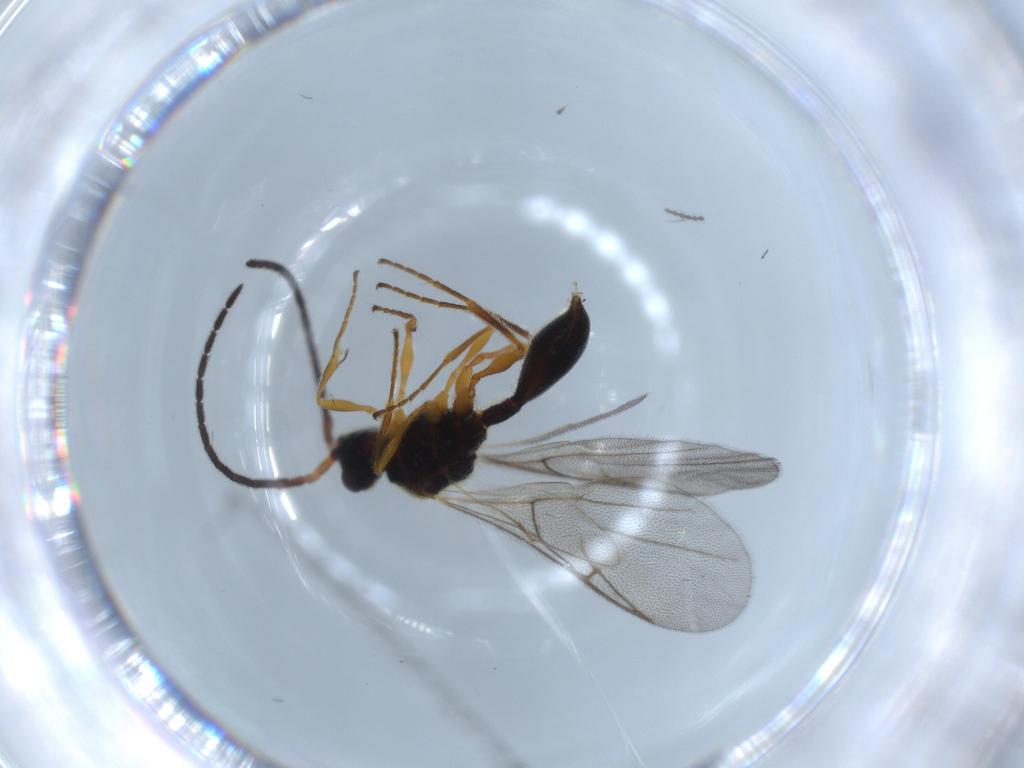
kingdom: Animalia
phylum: Arthropoda
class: Insecta
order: Hymenoptera
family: Diapriidae
